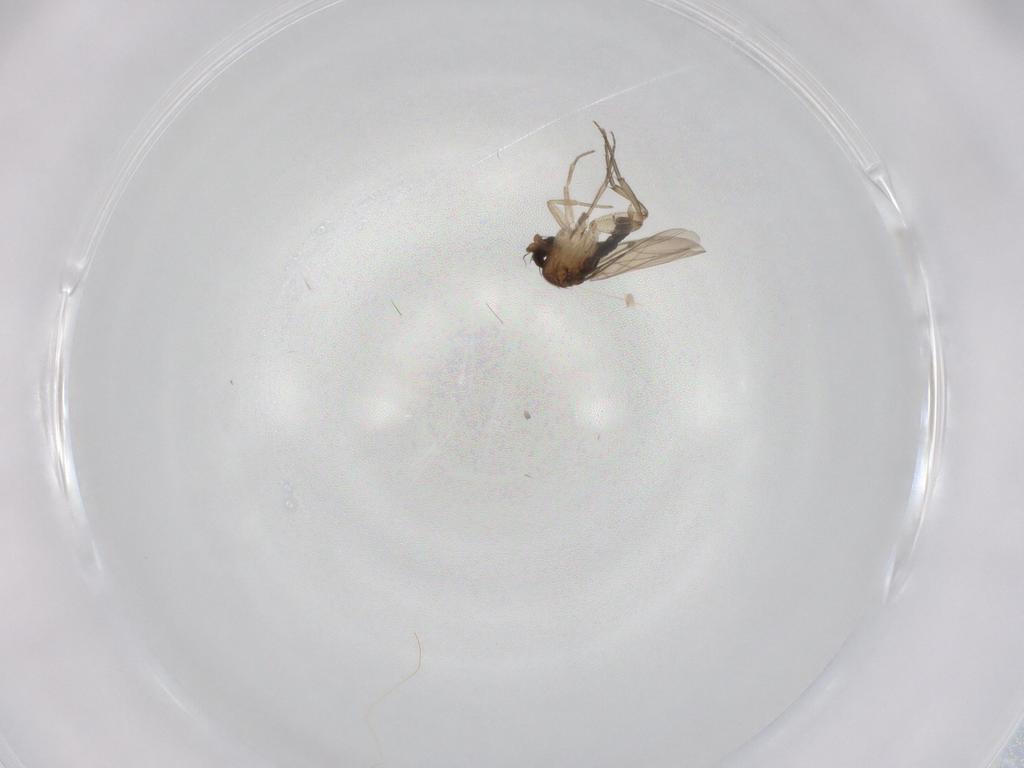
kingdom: Animalia
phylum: Arthropoda
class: Insecta
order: Diptera
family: Phoridae
